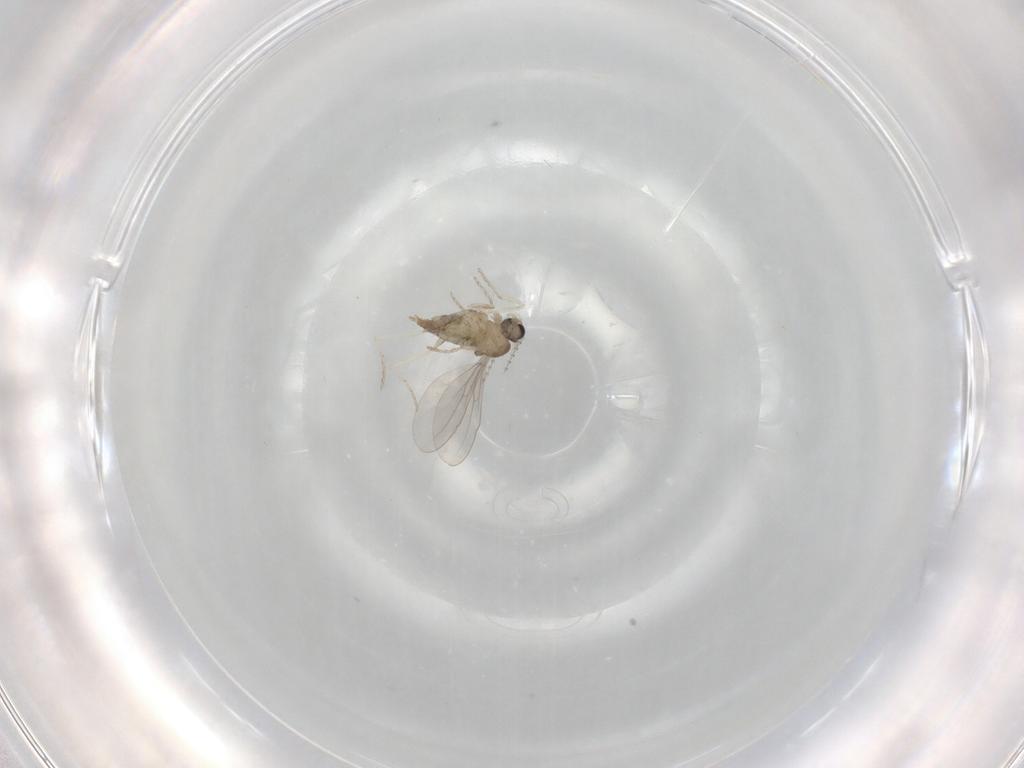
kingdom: Animalia
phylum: Arthropoda
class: Insecta
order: Diptera
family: Cecidomyiidae
